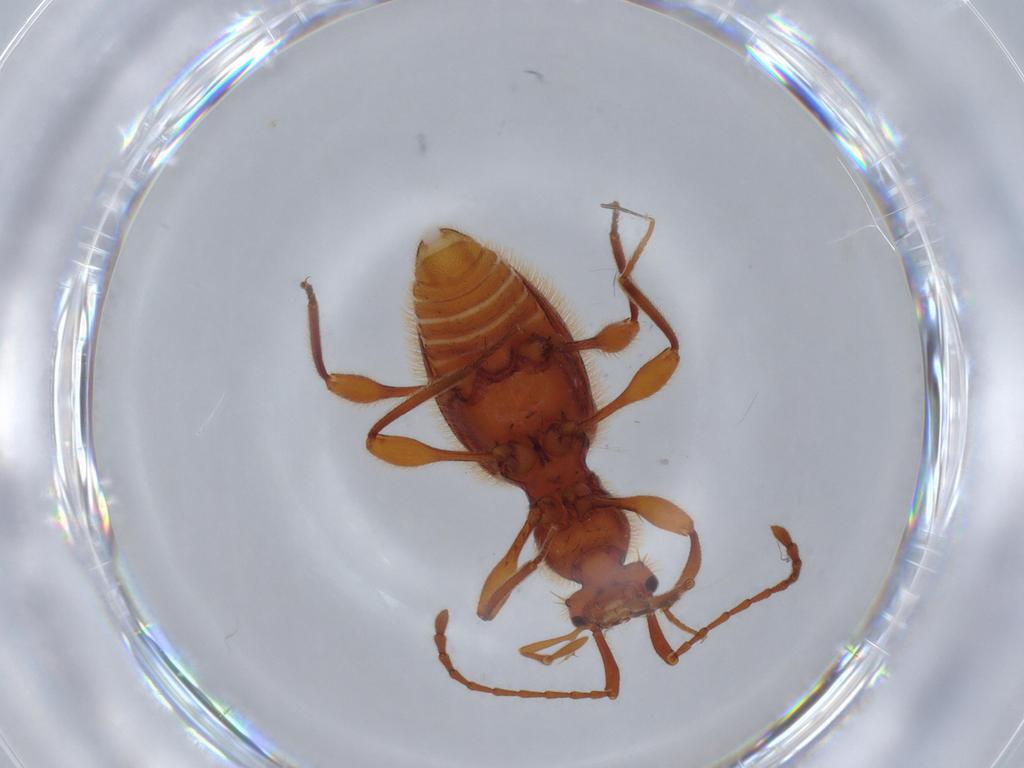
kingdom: Animalia
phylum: Arthropoda
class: Insecta
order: Coleoptera
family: Staphylinidae
